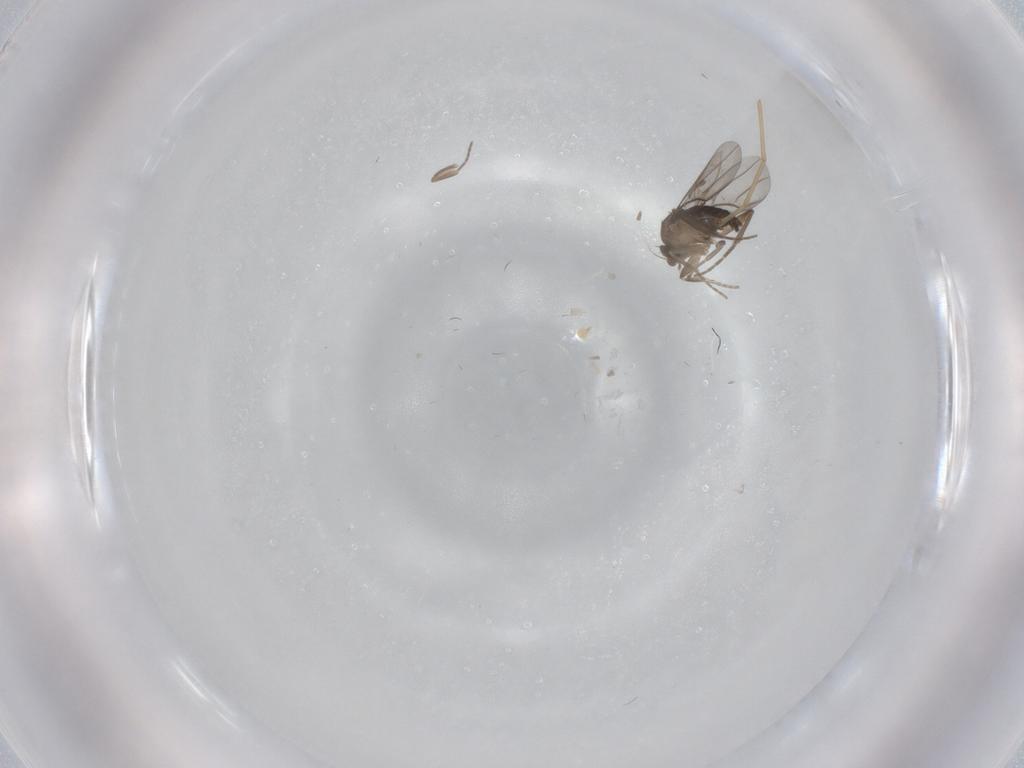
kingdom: Animalia
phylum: Arthropoda
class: Insecta
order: Diptera
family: Cecidomyiidae
